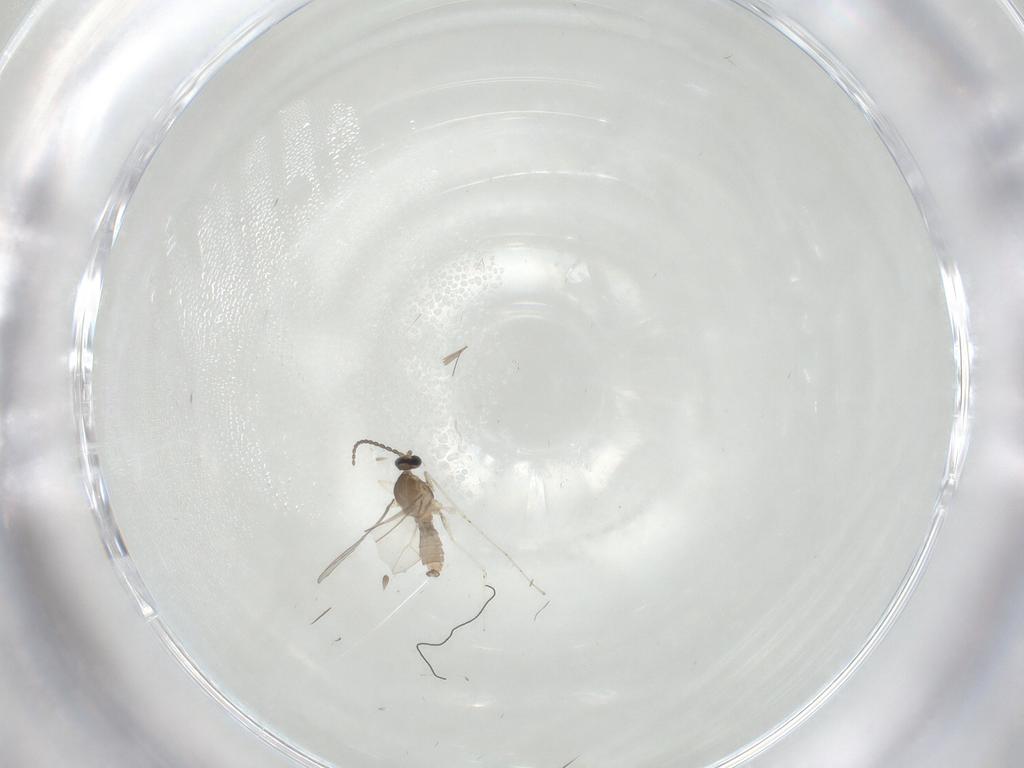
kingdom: Animalia
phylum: Arthropoda
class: Insecta
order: Diptera
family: Cecidomyiidae
